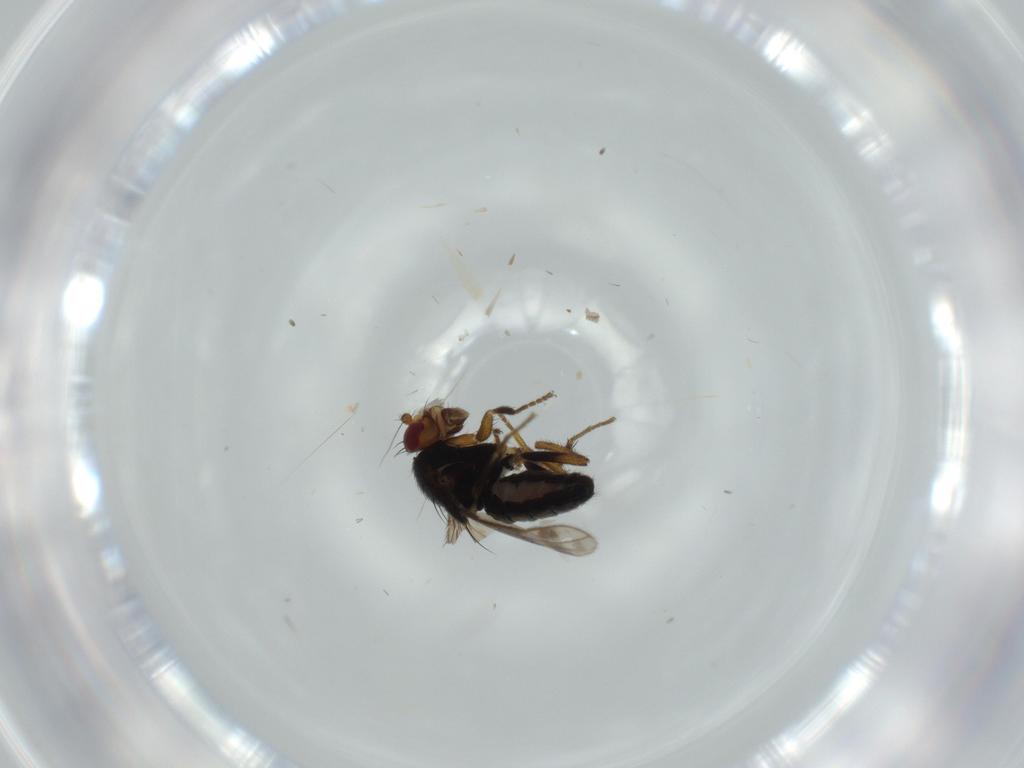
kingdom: Animalia
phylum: Arthropoda
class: Insecta
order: Diptera
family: Sphaeroceridae
